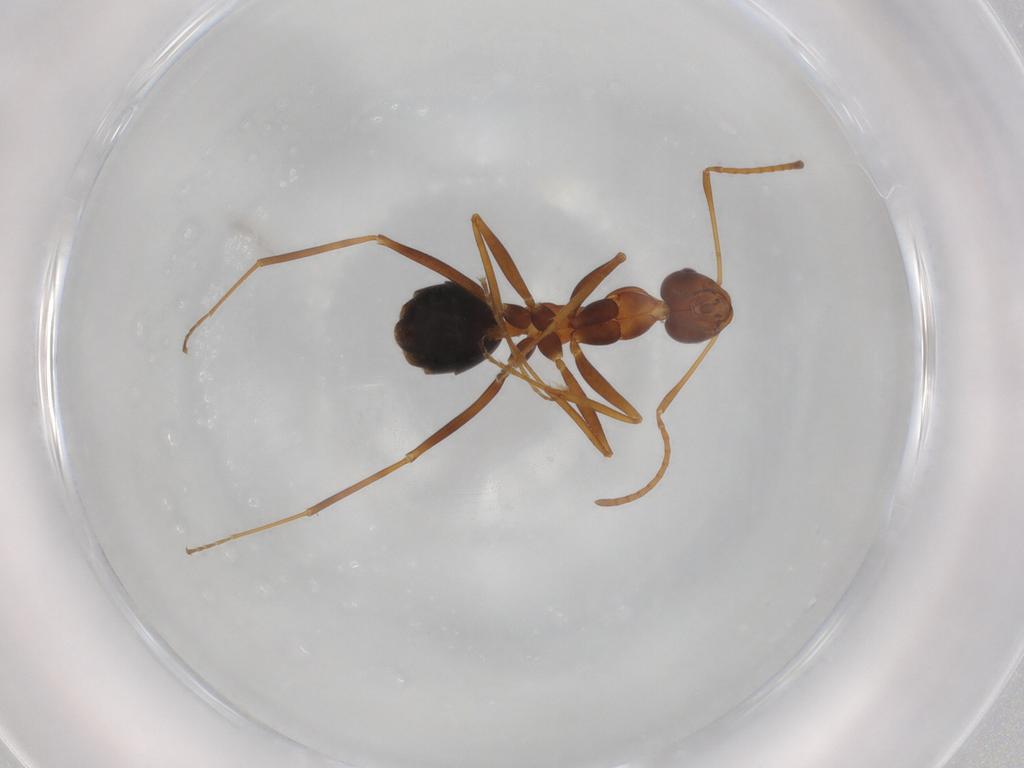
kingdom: Animalia
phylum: Arthropoda
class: Insecta
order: Hymenoptera
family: Formicidae
